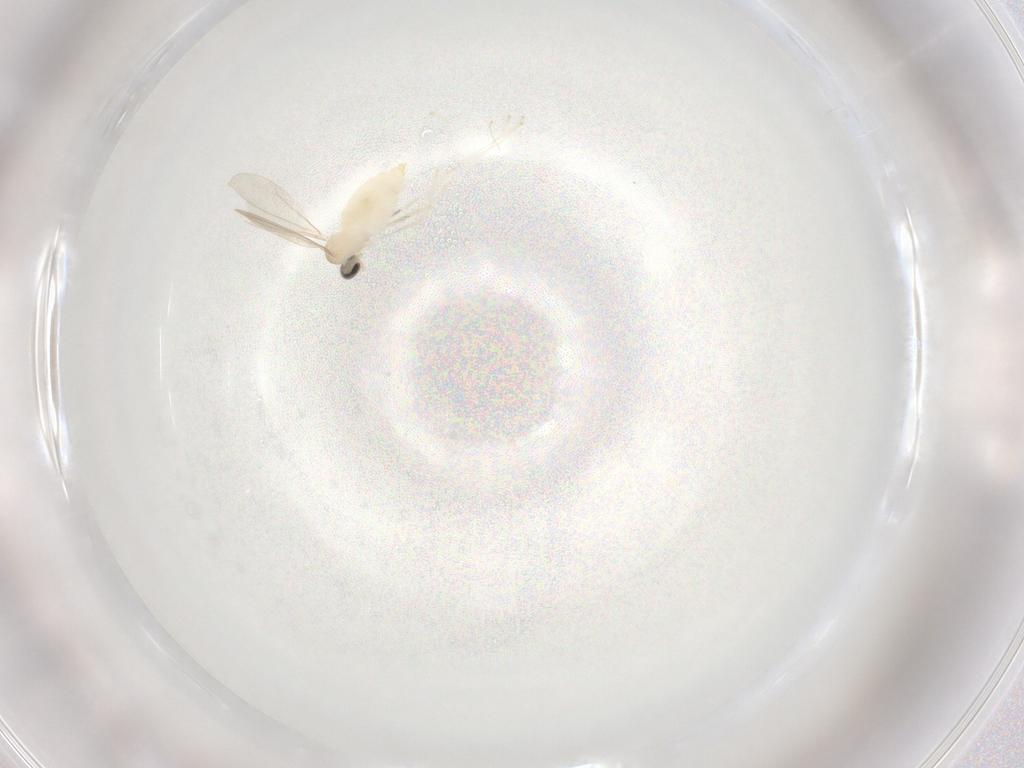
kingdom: Animalia
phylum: Arthropoda
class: Insecta
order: Diptera
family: Cecidomyiidae
